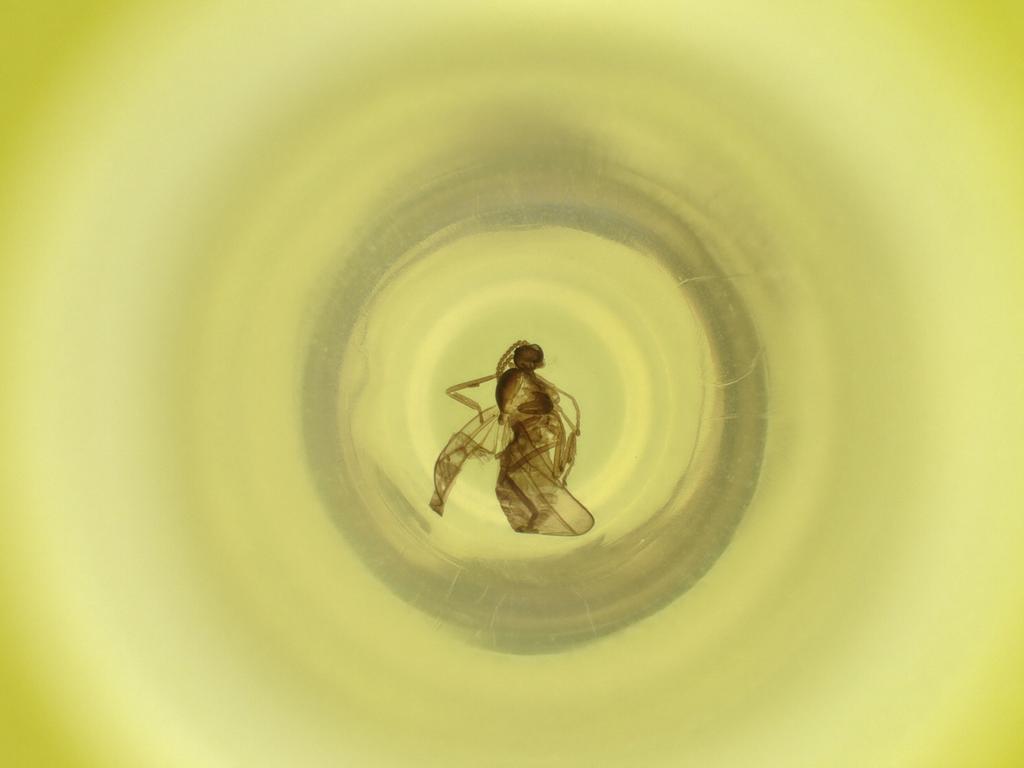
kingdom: Animalia
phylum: Arthropoda
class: Insecta
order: Diptera
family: Cecidomyiidae
